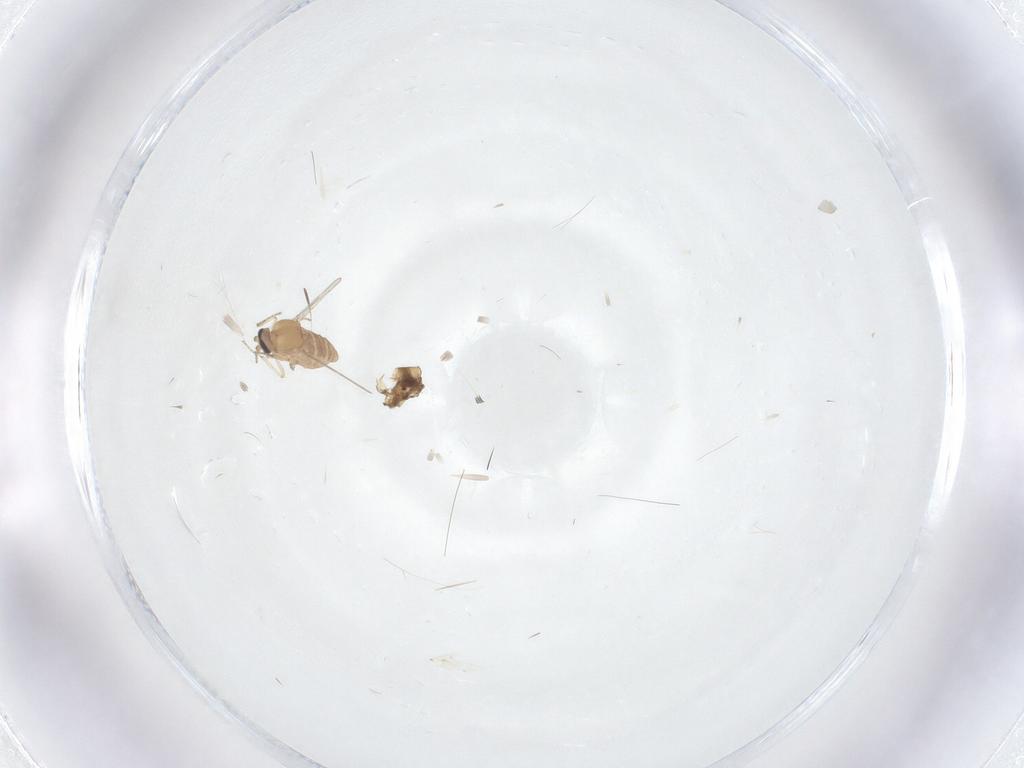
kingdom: Animalia
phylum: Arthropoda
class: Insecta
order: Diptera
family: Ceratopogonidae
